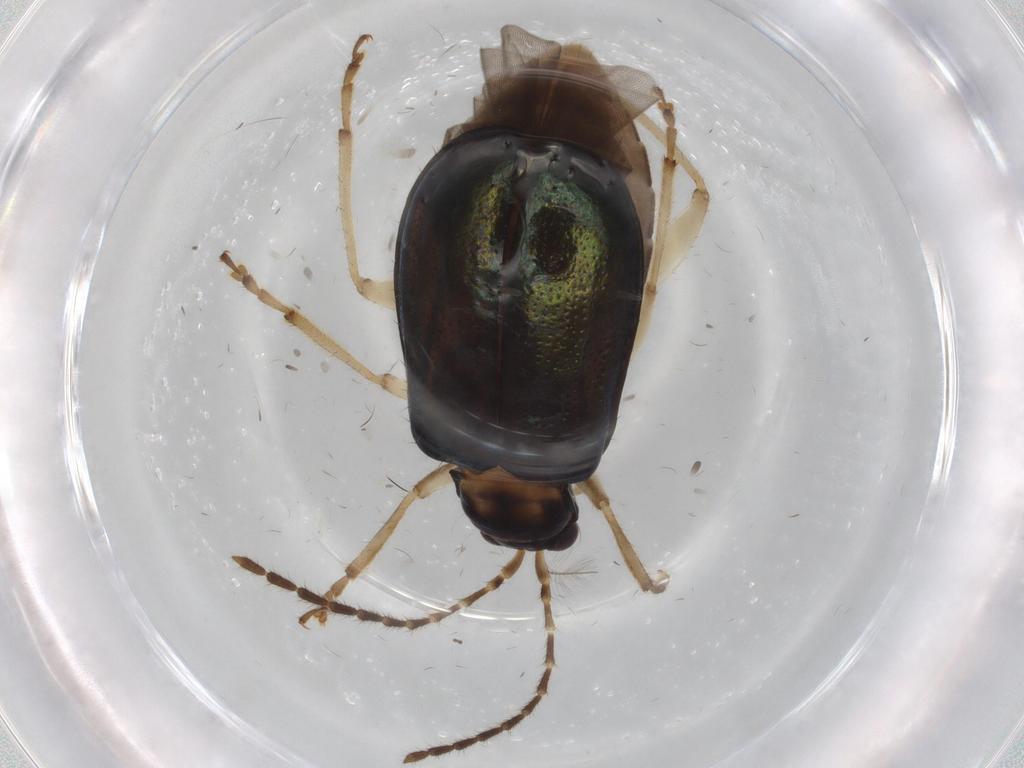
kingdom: Animalia
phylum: Arthropoda
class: Insecta
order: Coleoptera
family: Chrysomelidae
